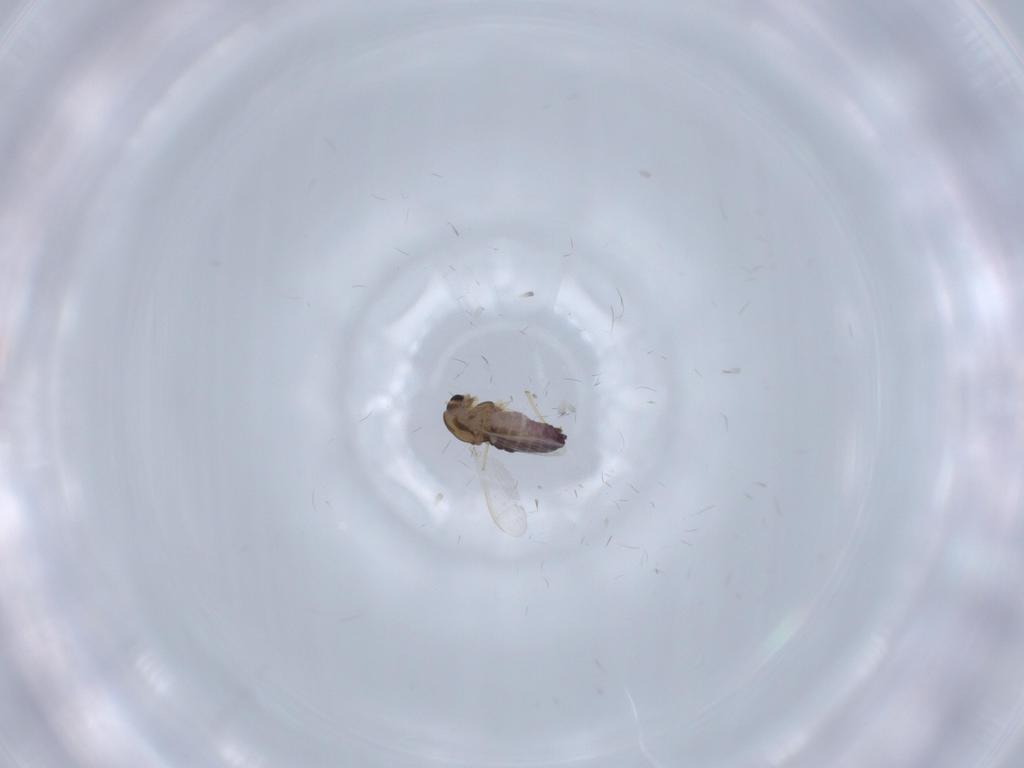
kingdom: Animalia
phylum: Arthropoda
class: Insecta
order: Diptera
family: Chironomidae
